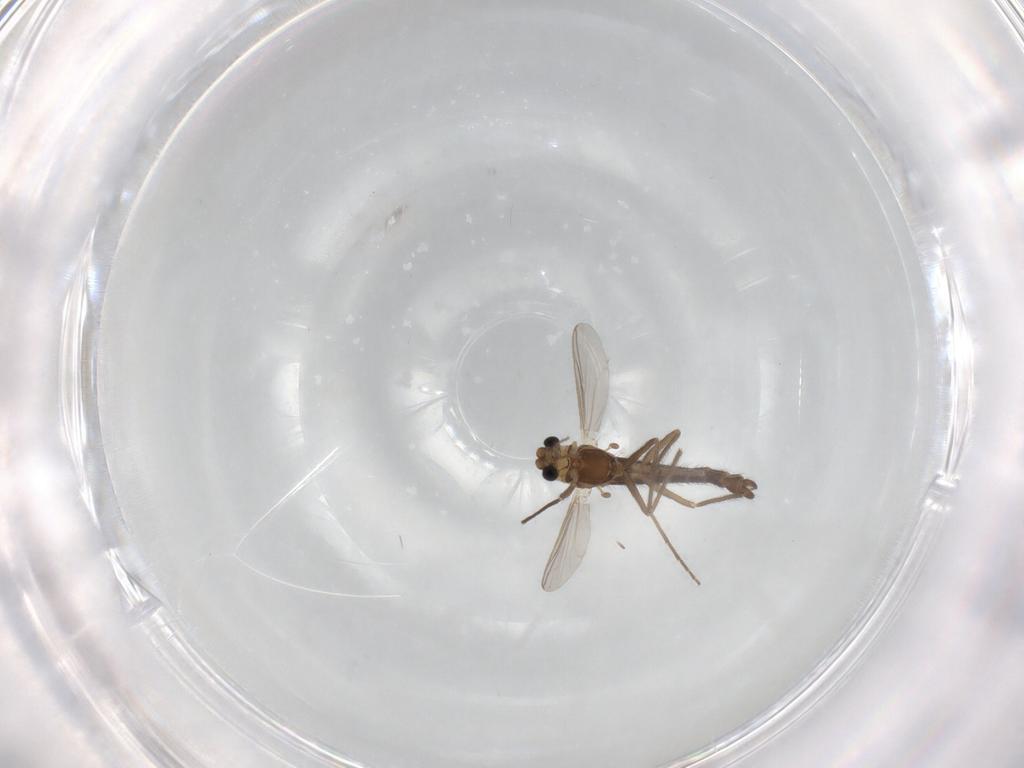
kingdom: Animalia
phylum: Arthropoda
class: Insecta
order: Diptera
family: Chironomidae
